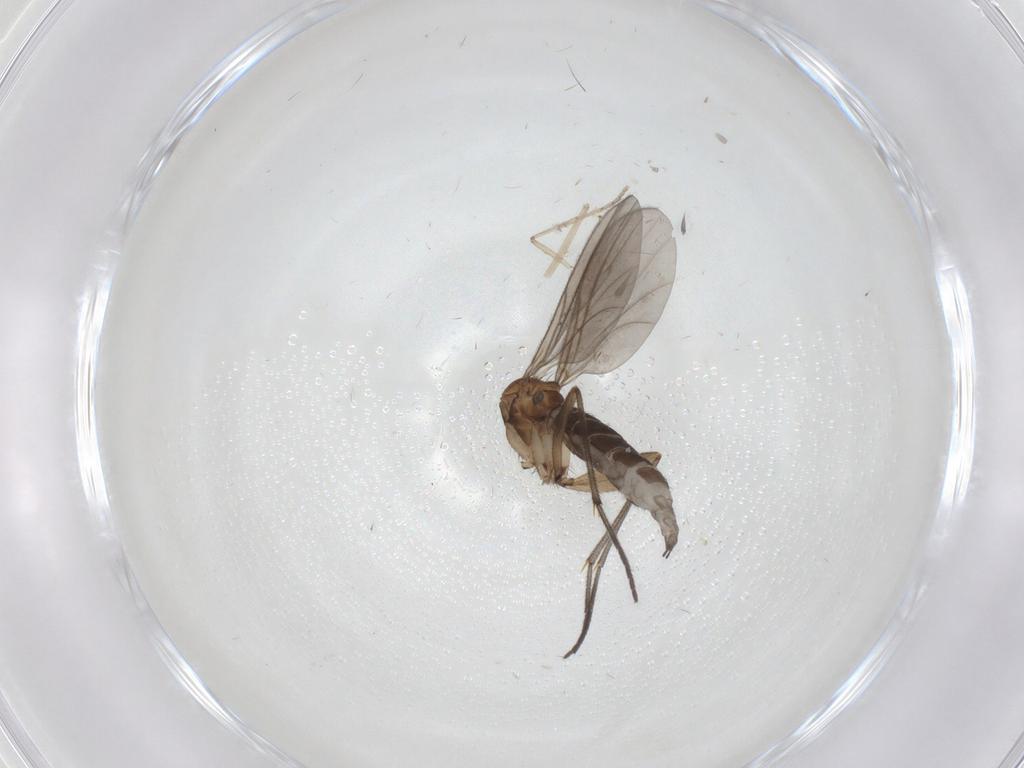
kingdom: Animalia
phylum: Arthropoda
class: Insecta
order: Diptera
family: Sciaridae
